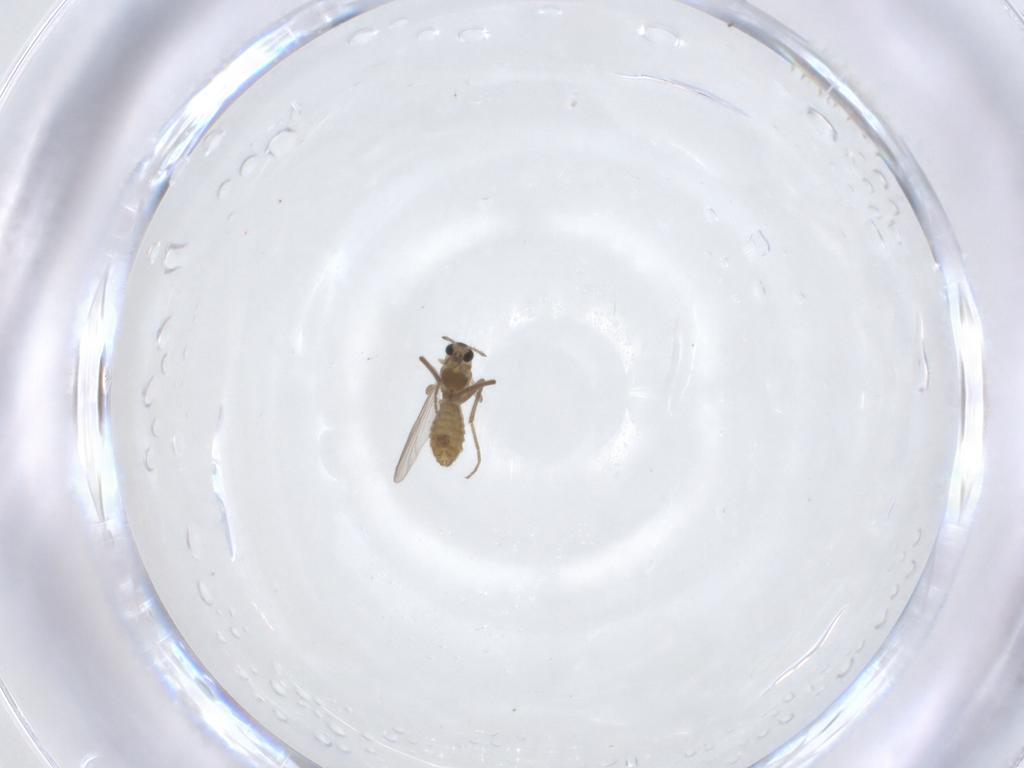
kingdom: Animalia
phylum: Arthropoda
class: Insecta
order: Diptera
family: Chironomidae
